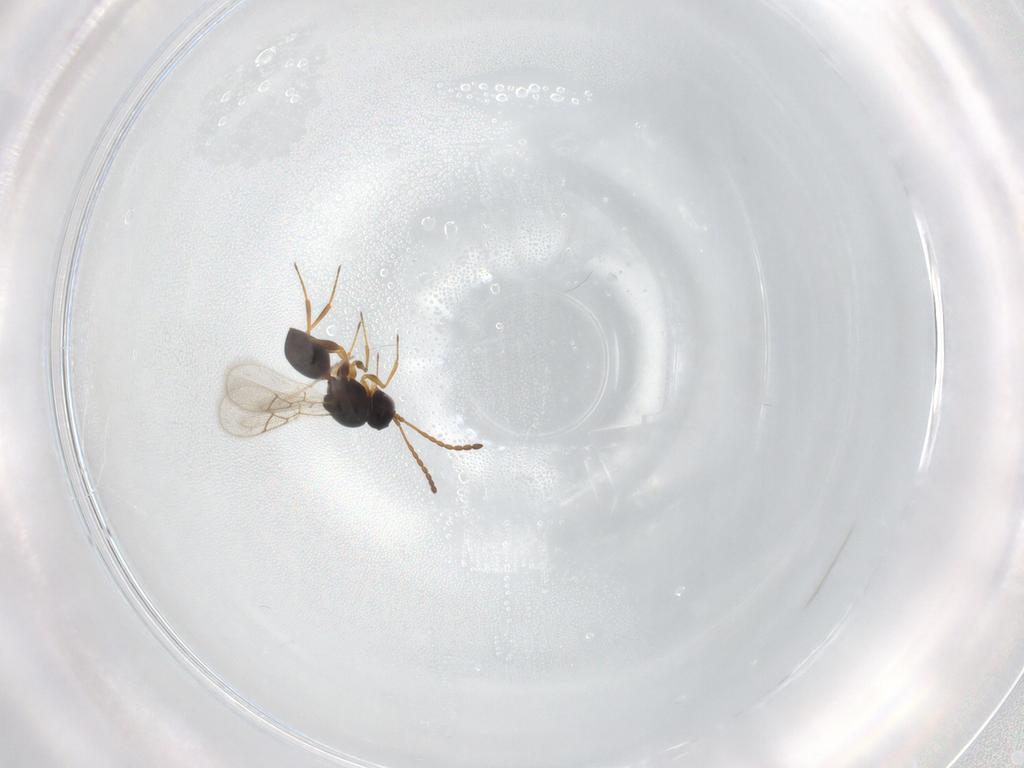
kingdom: Animalia
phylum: Arthropoda
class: Insecta
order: Hymenoptera
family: Figitidae
